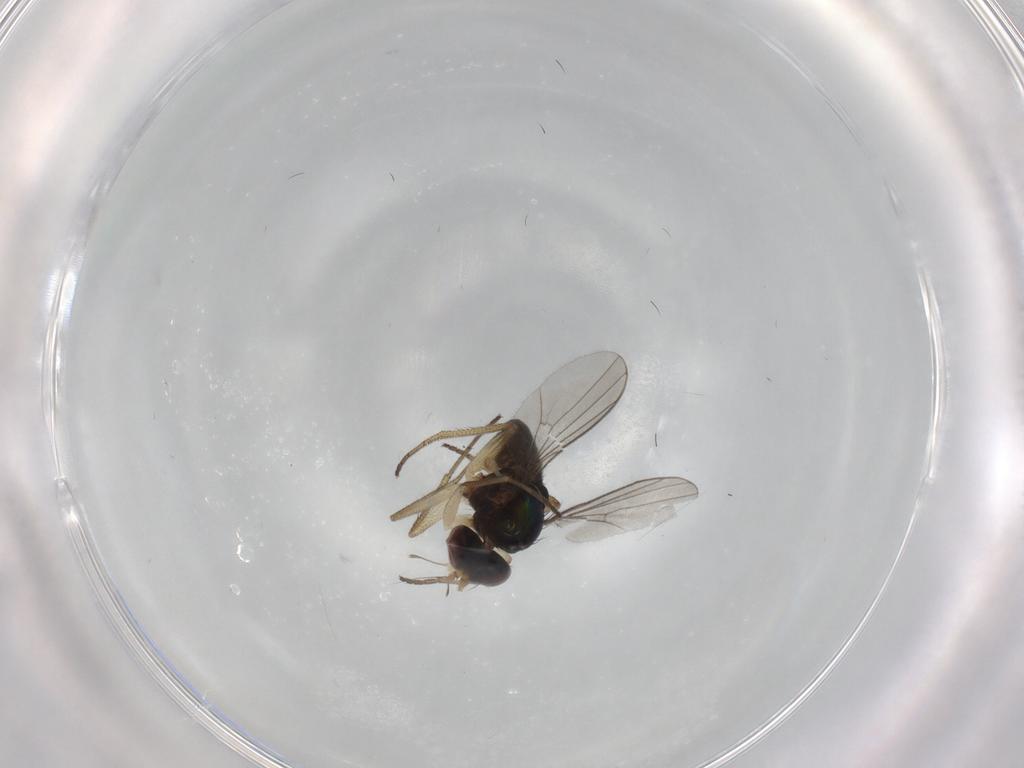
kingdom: Animalia
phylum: Arthropoda
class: Insecta
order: Diptera
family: Dolichopodidae
